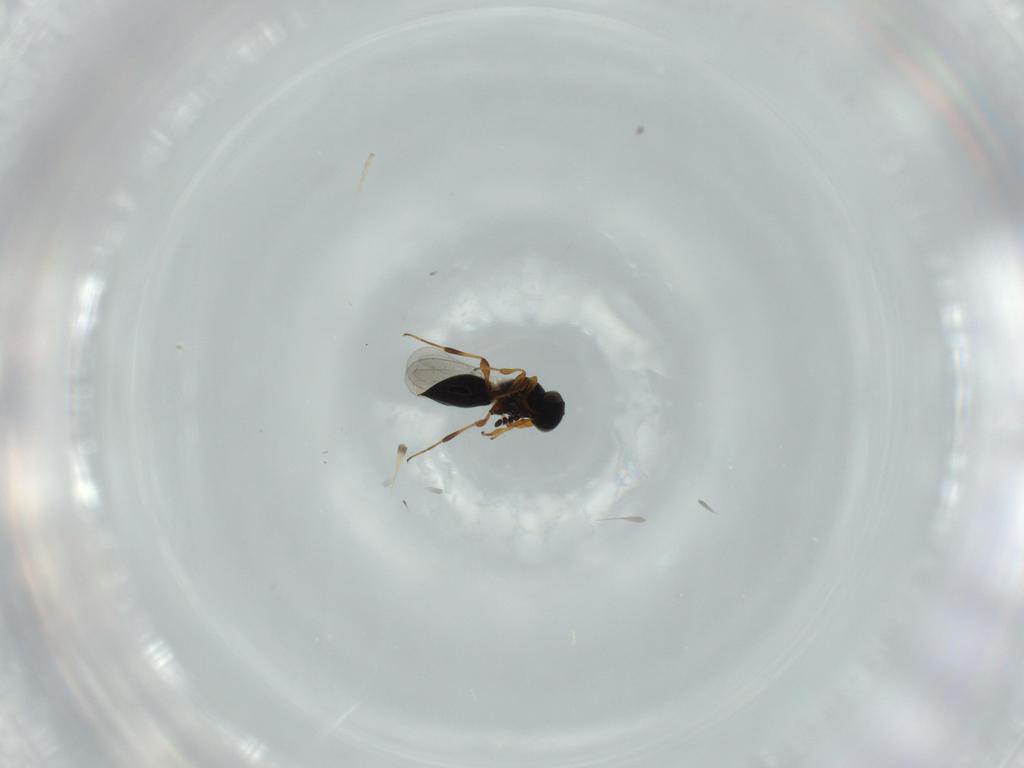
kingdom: Animalia
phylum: Arthropoda
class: Insecta
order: Hymenoptera
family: Platygastridae
